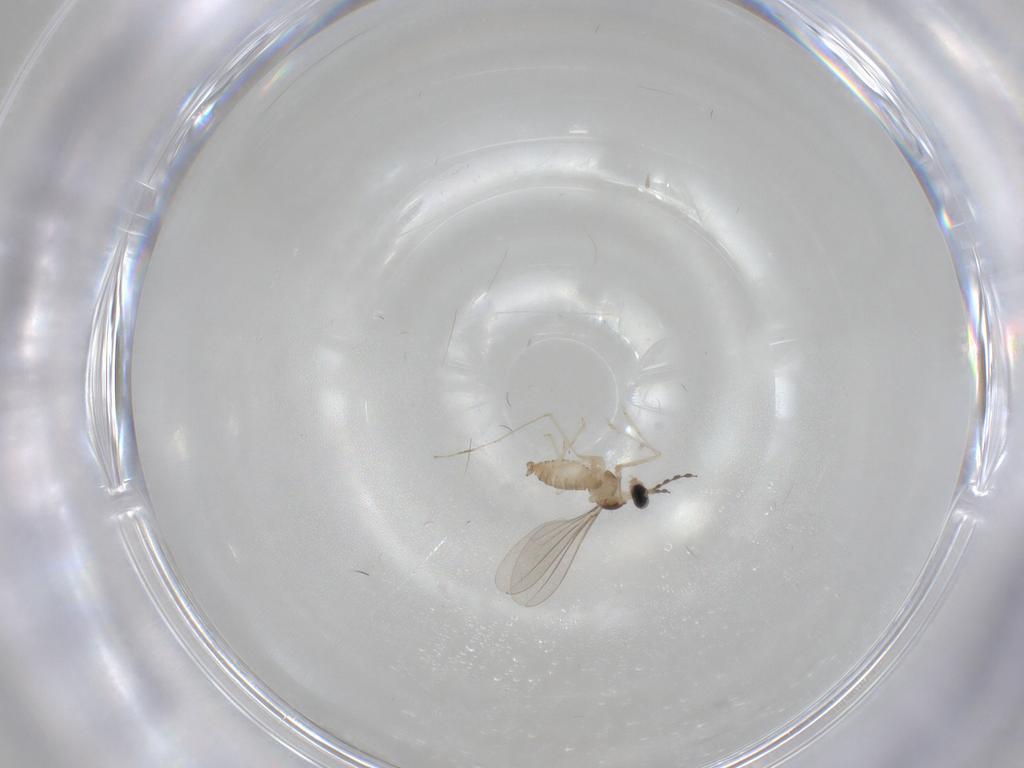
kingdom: Animalia
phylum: Arthropoda
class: Insecta
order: Diptera
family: Cecidomyiidae
